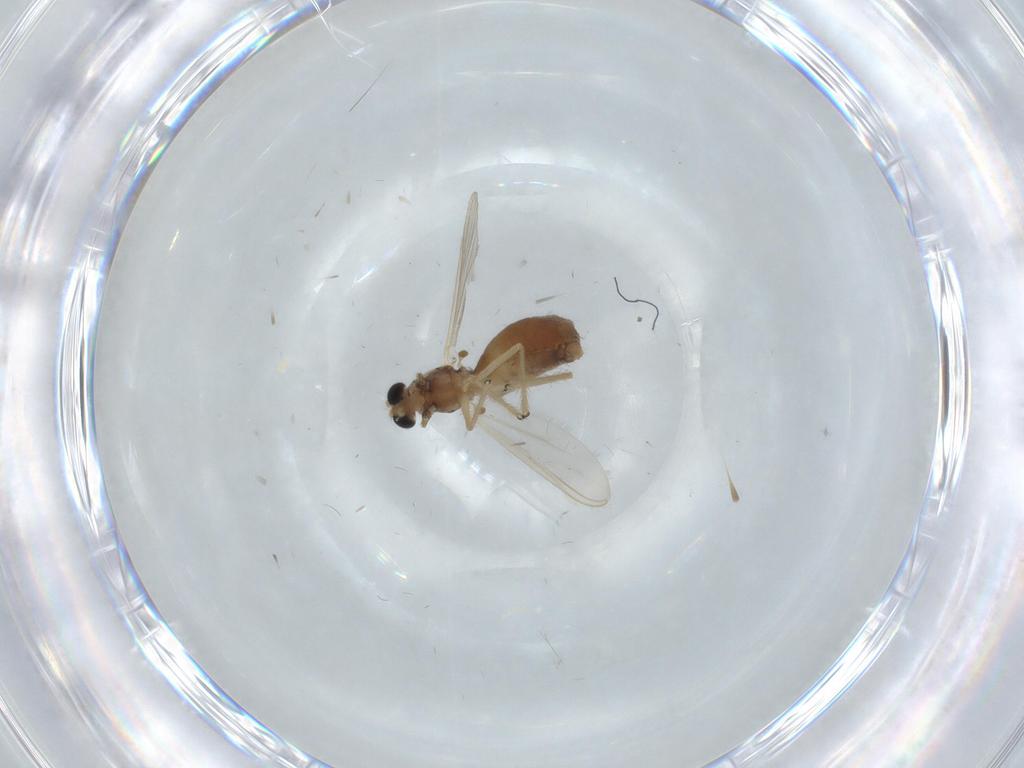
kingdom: Animalia
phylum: Arthropoda
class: Insecta
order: Diptera
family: Chironomidae
